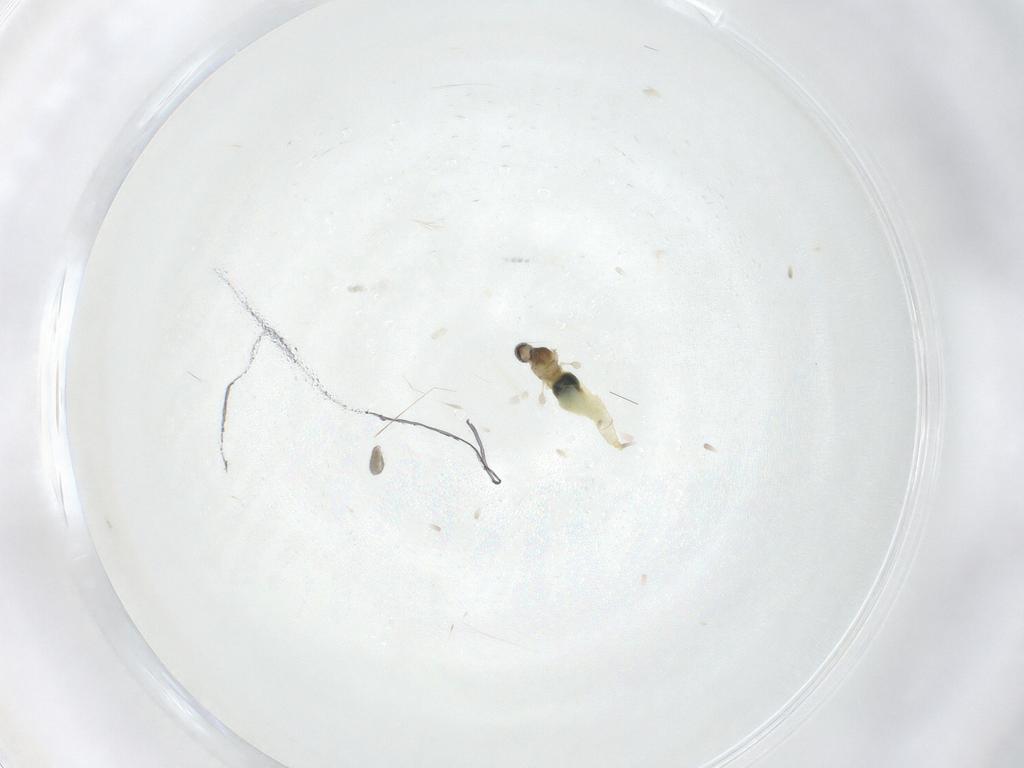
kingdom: Animalia
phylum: Arthropoda
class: Insecta
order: Diptera
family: Cecidomyiidae
